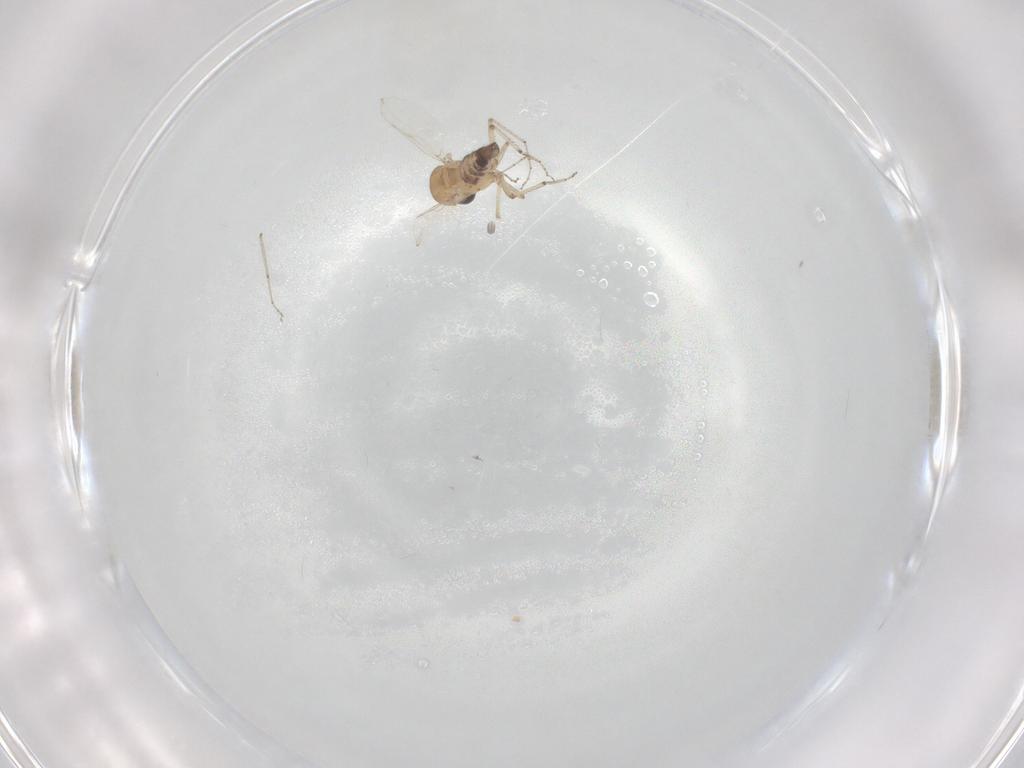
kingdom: Animalia
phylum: Arthropoda
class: Insecta
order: Diptera
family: Ceratopogonidae
